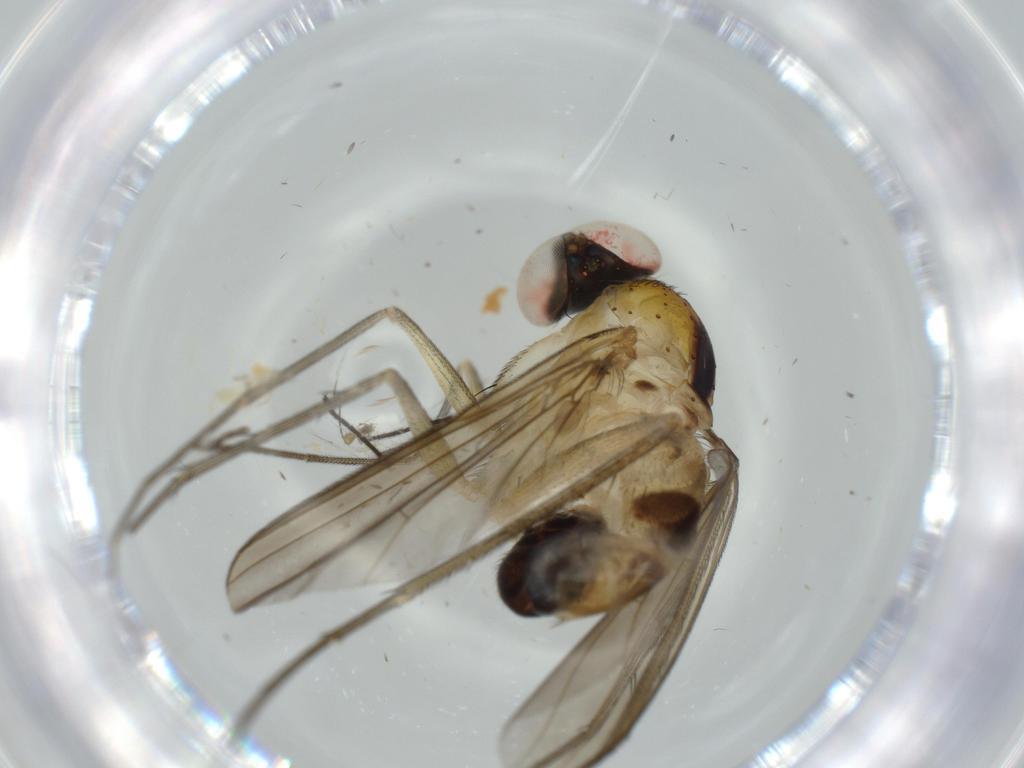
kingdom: Animalia
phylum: Arthropoda
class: Insecta
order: Diptera
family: Dolichopodidae
